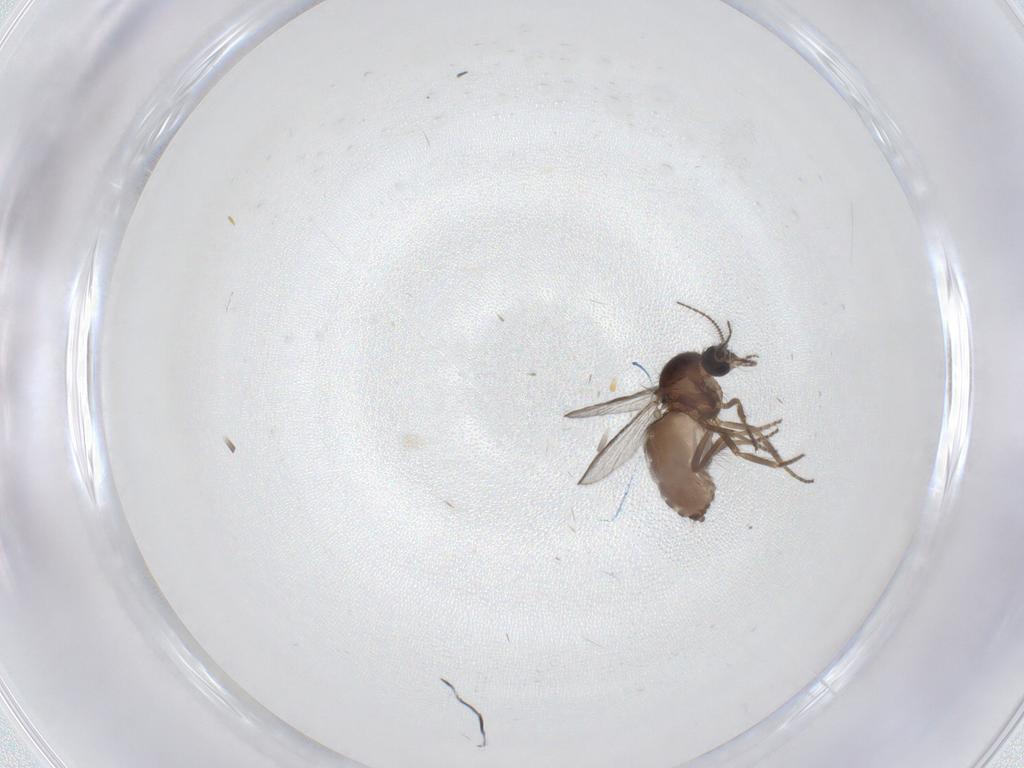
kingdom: Animalia
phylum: Arthropoda
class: Insecta
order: Diptera
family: Ceratopogonidae
